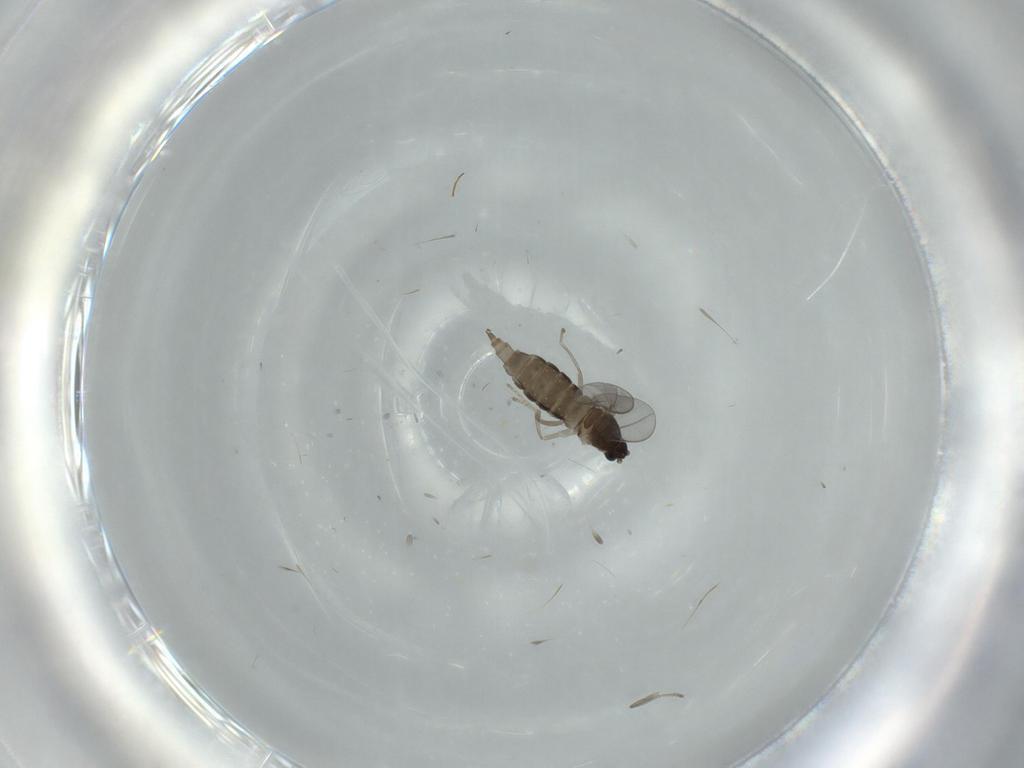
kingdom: Animalia
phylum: Arthropoda
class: Insecta
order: Diptera
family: Cecidomyiidae
